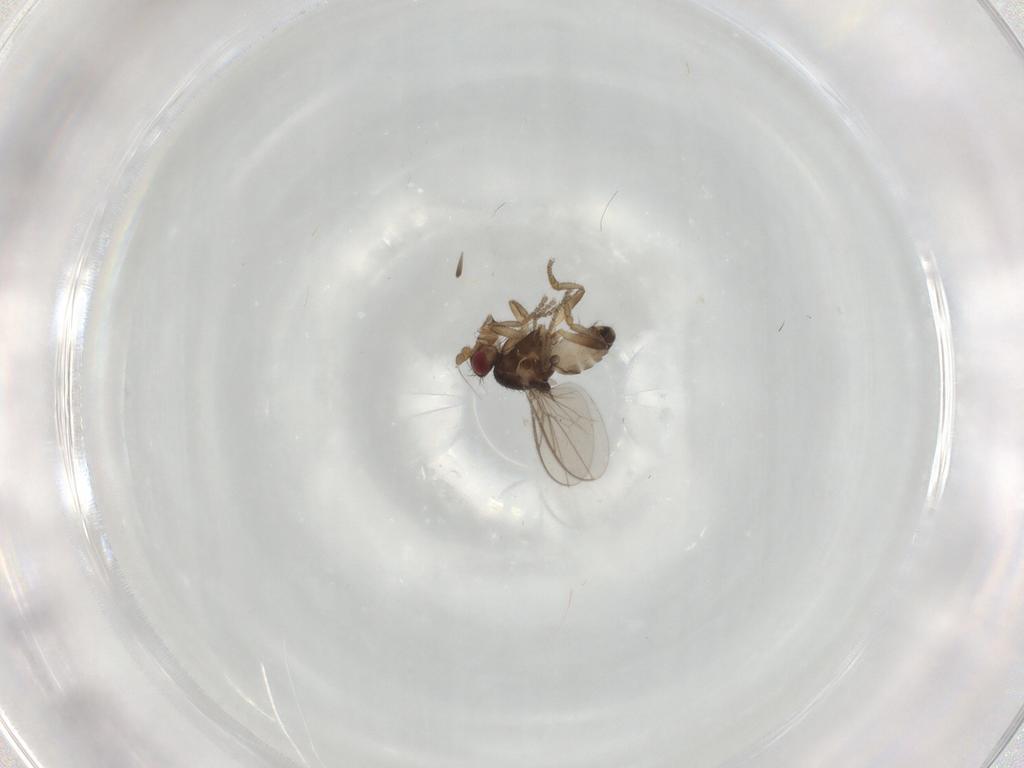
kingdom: Animalia
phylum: Arthropoda
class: Insecta
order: Diptera
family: Sphaeroceridae
